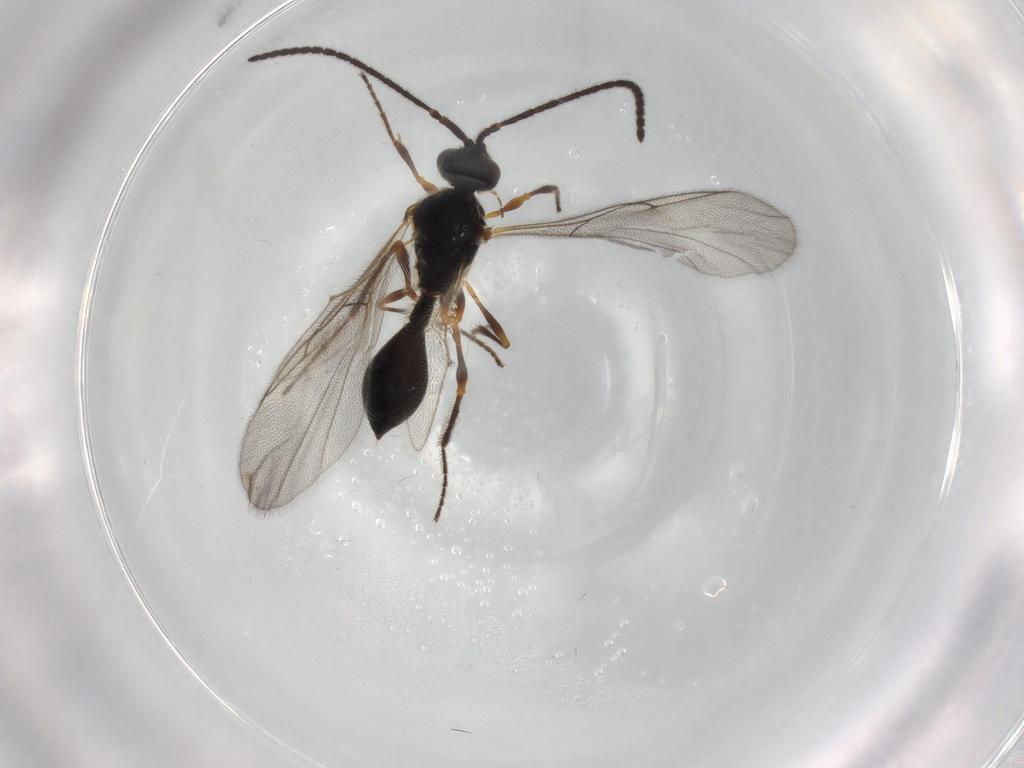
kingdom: Animalia
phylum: Arthropoda
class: Insecta
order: Hymenoptera
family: Diapriidae
